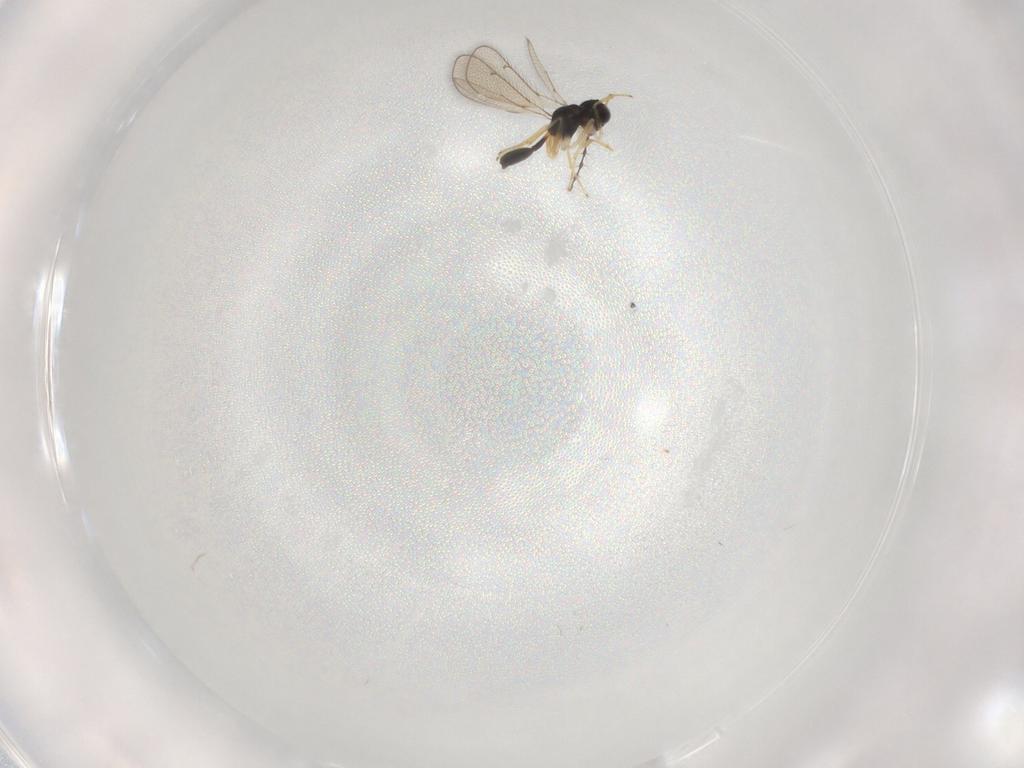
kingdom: Animalia
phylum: Arthropoda
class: Insecta
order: Hymenoptera
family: Diparidae
